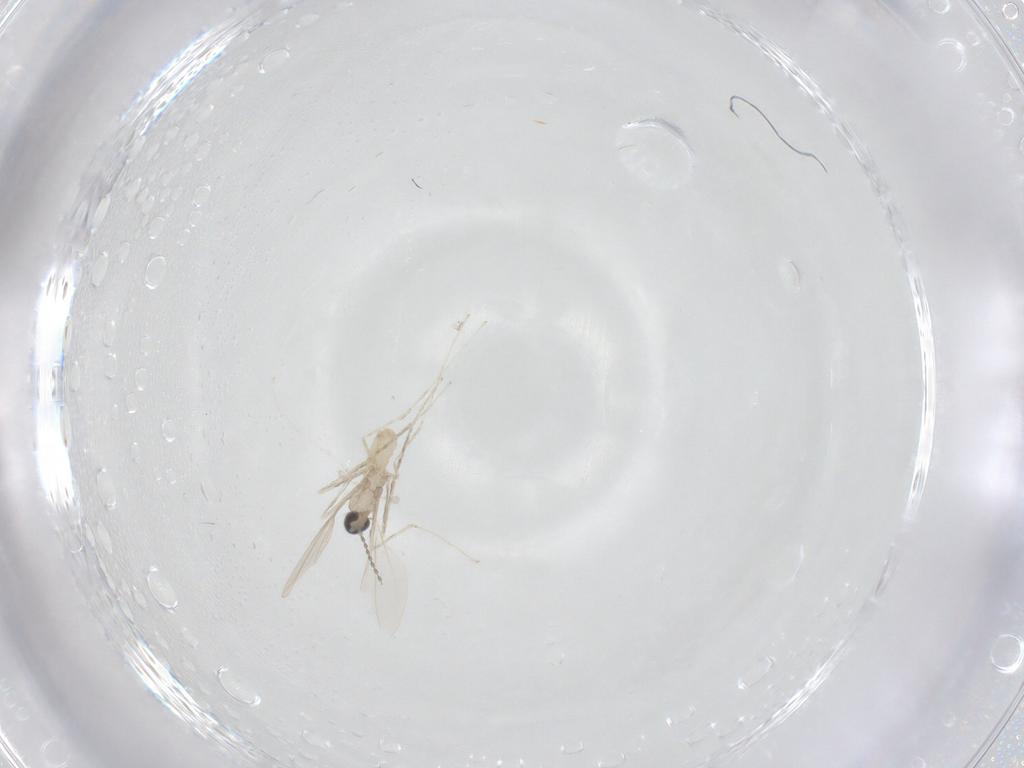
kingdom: Animalia
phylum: Arthropoda
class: Insecta
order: Diptera
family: Cecidomyiidae
